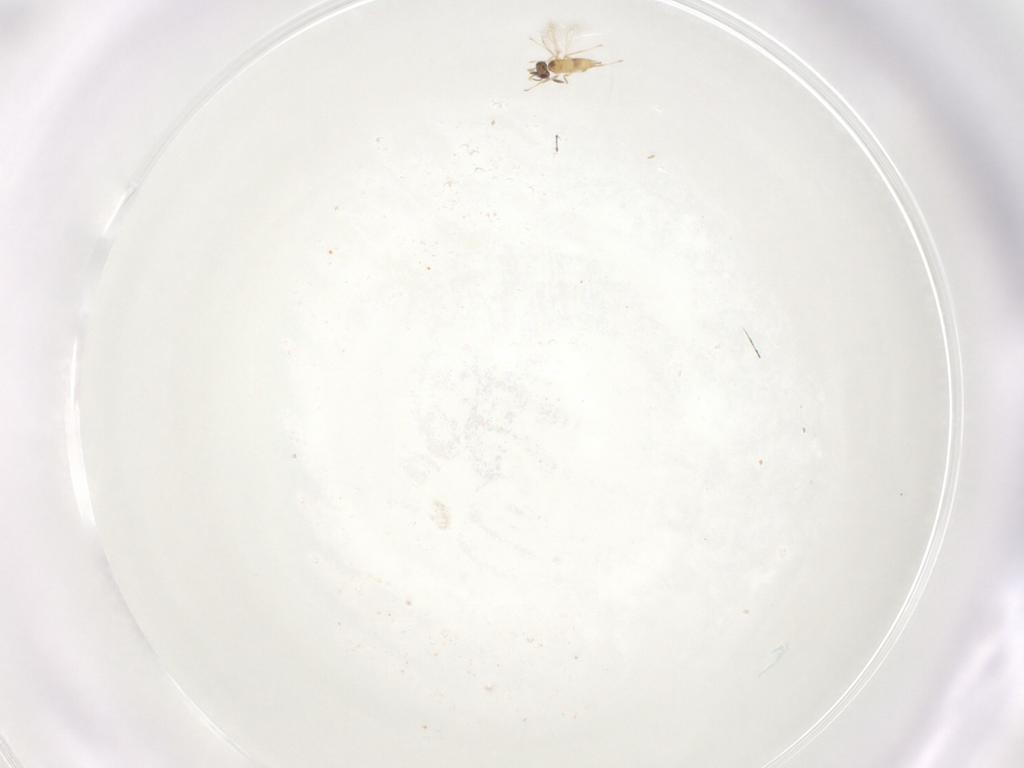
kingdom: Animalia
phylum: Arthropoda
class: Insecta
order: Hymenoptera
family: Mymaridae
